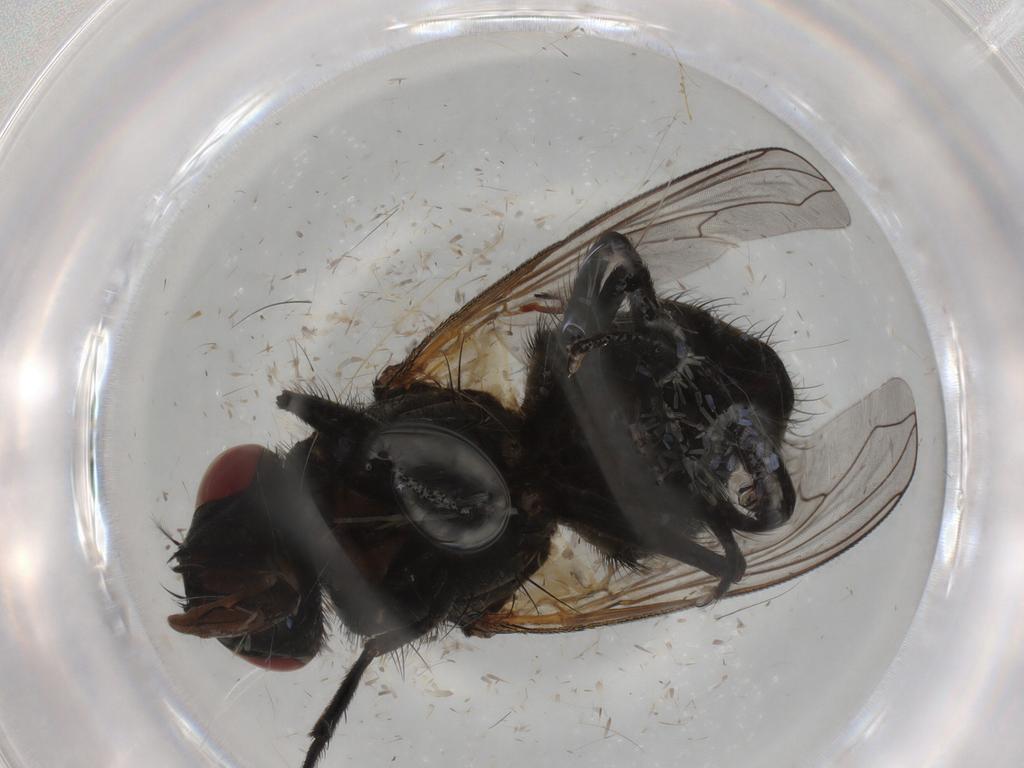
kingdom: Animalia
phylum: Arthropoda
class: Insecta
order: Diptera
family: Muscidae
